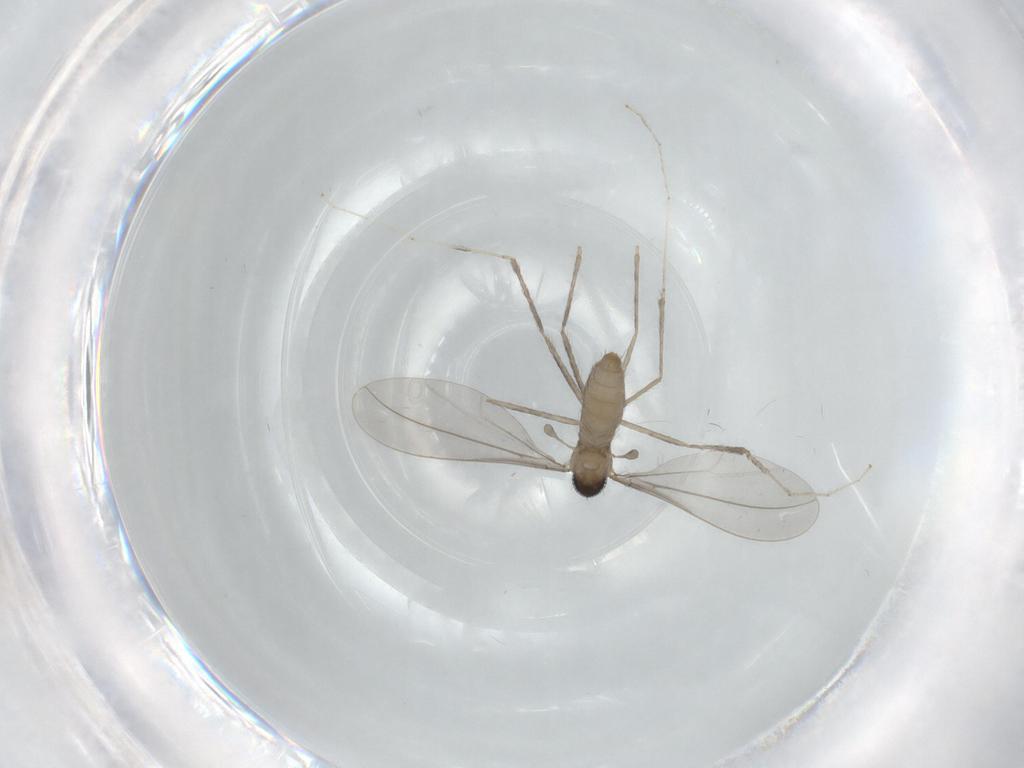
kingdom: Animalia
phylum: Arthropoda
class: Insecta
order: Diptera
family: Cecidomyiidae
